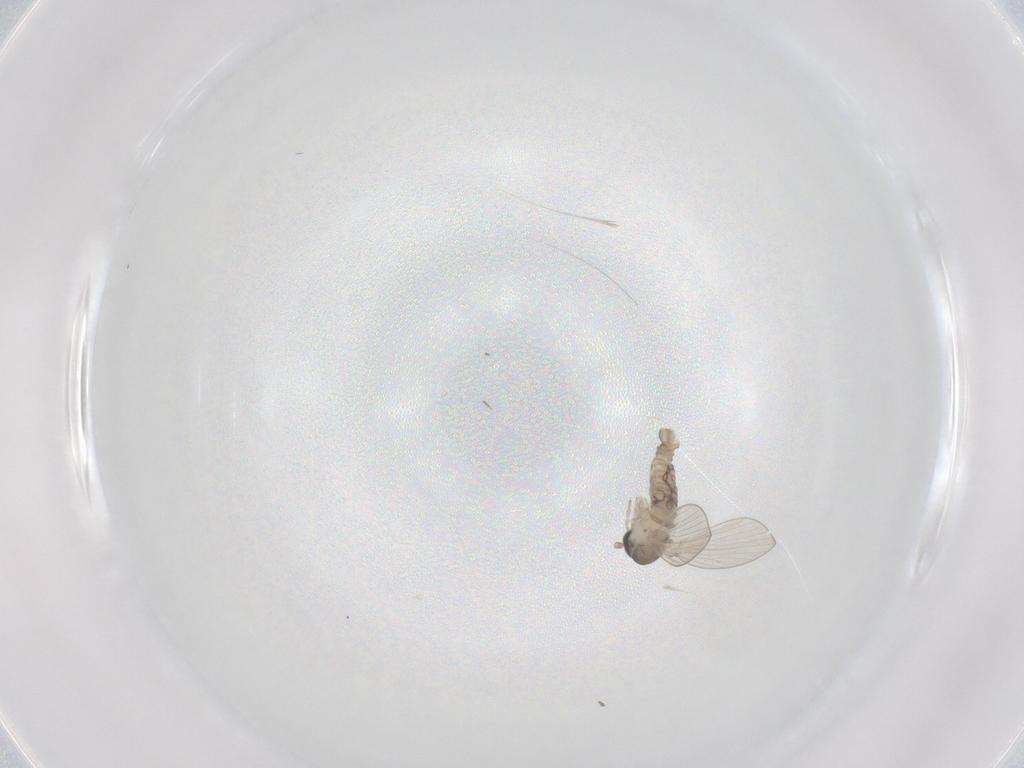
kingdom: Animalia
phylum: Arthropoda
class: Insecta
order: Diptera
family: Psychodidae
